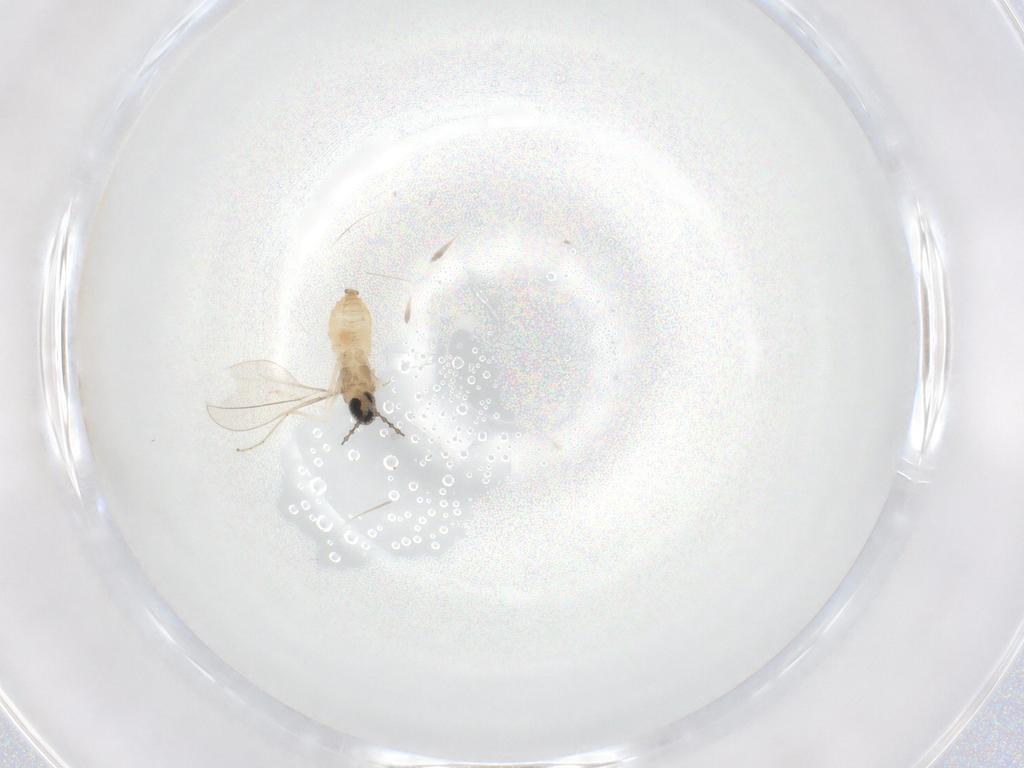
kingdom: Animalia
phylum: Arthropoda
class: Insecta
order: Diptera
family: Cecidomyiidae
